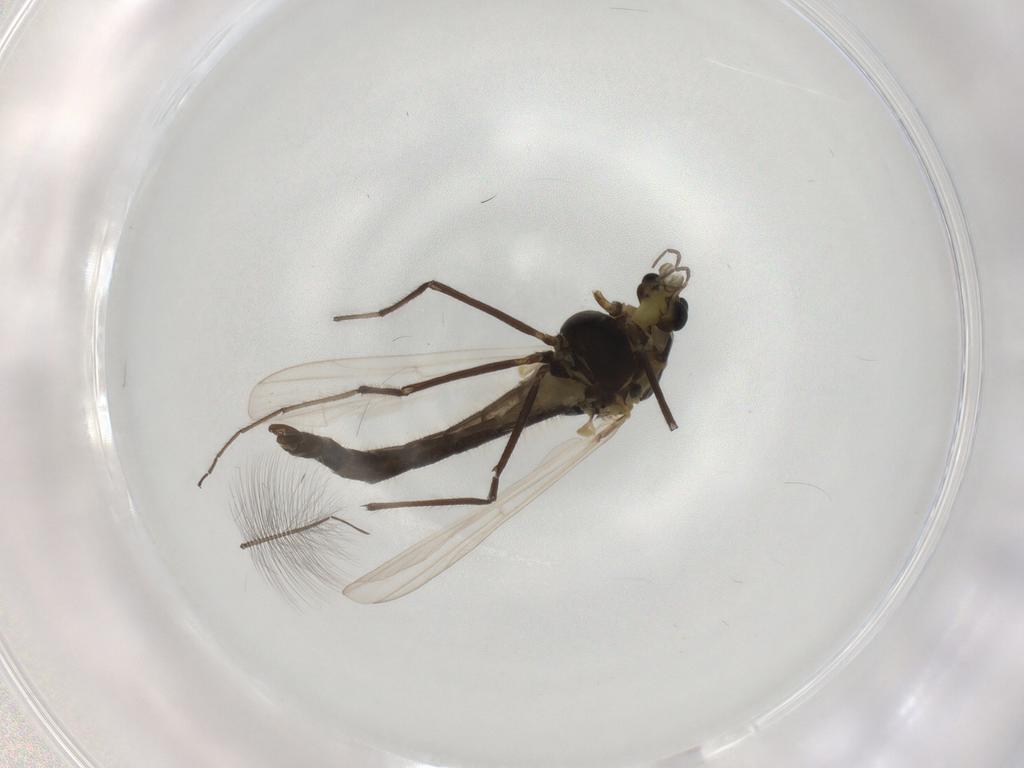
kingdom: Animalia
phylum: Arthropoda
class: Insecta
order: Diptera
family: Chironomidae
